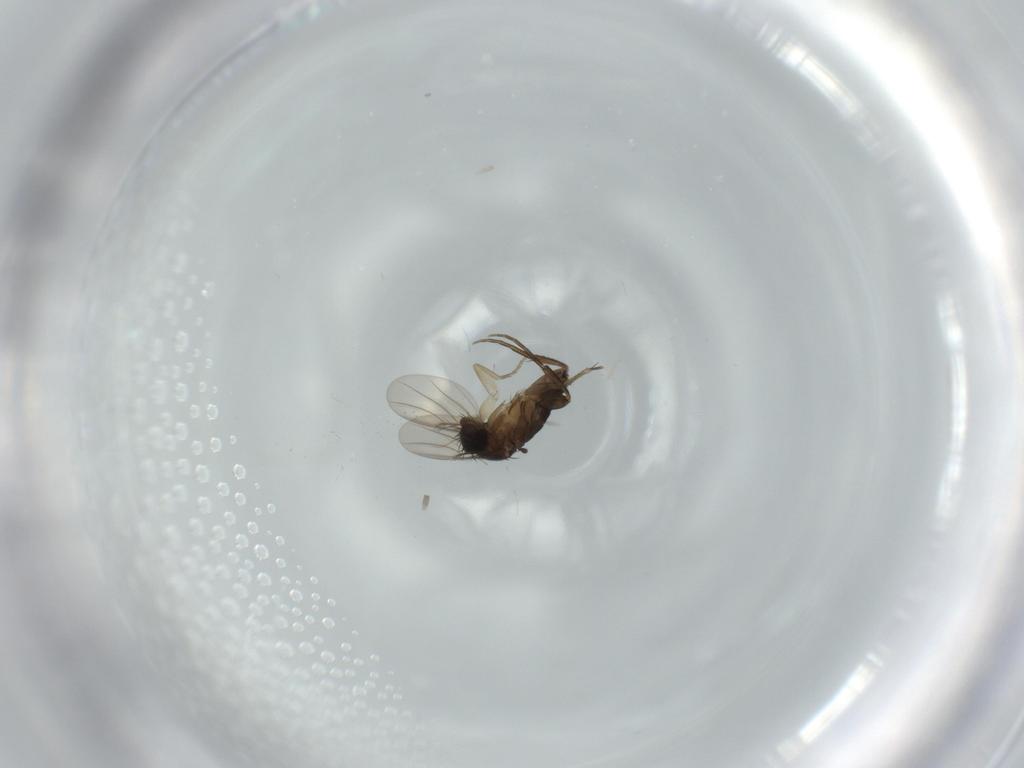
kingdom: Animalia
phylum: Arthropoda
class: Insecta
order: Diptera
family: Phoridae
